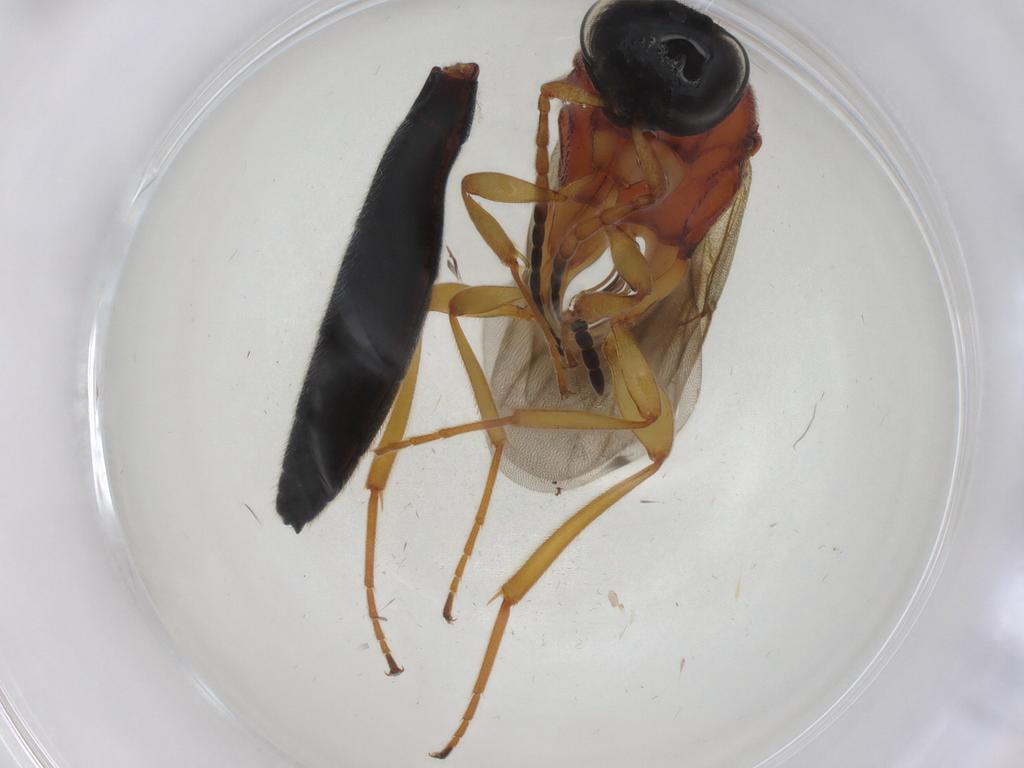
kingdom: Animalia
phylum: Arthropoda
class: Insecta
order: Hymenoptera
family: Scelionidae
